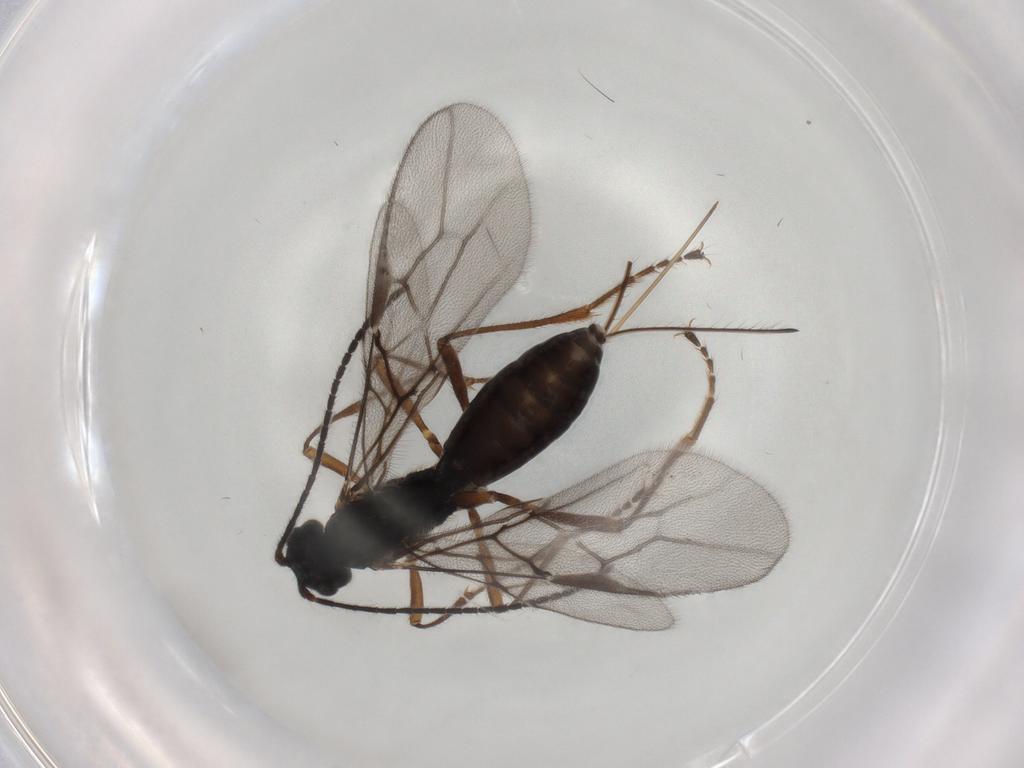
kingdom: Animalia
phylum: Arthropoda
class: Insecta
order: Hymenoptera
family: Braconidae
